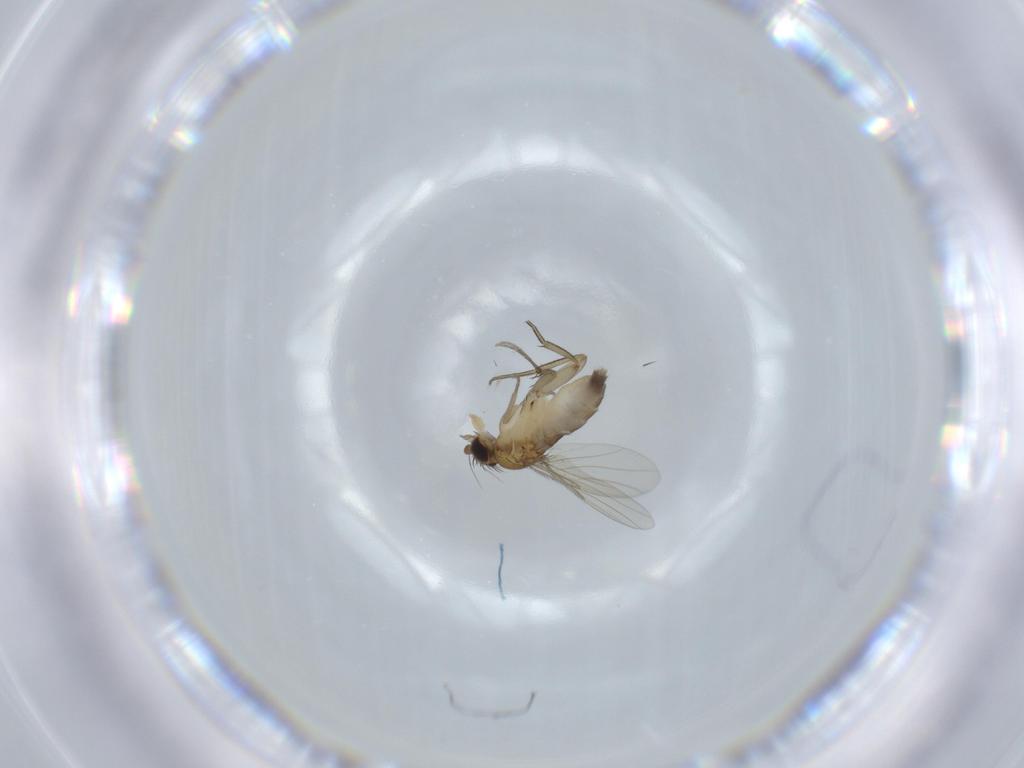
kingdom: Animalia
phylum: Arthropoda
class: Insecta
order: Diptera
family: Phoridae
